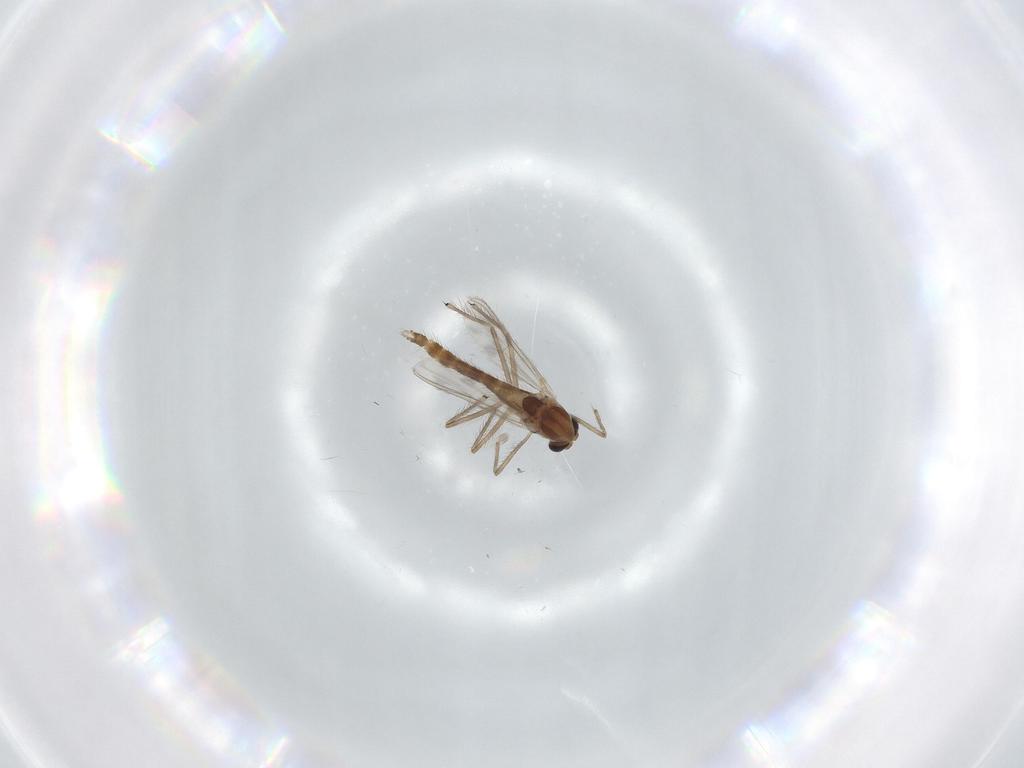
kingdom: Animalia
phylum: Arthropoda
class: Insecta
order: Diptera
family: Chironomidae
